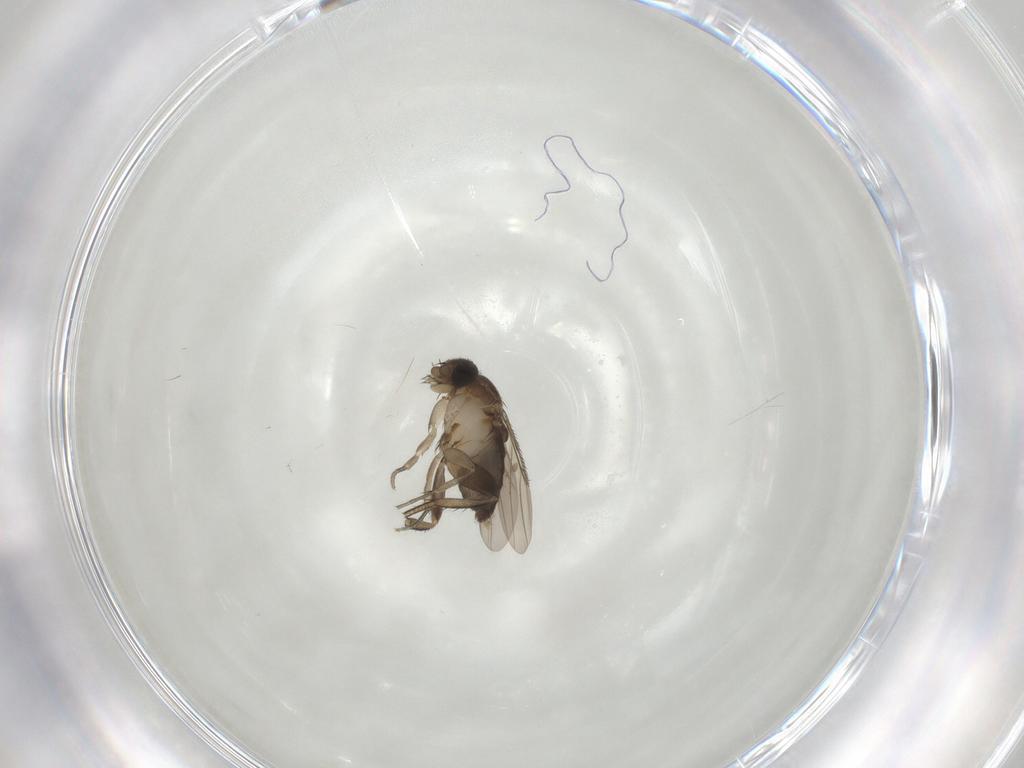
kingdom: Animalia
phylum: Arthropoda
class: Insecta
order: Diptera
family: Phoridae
